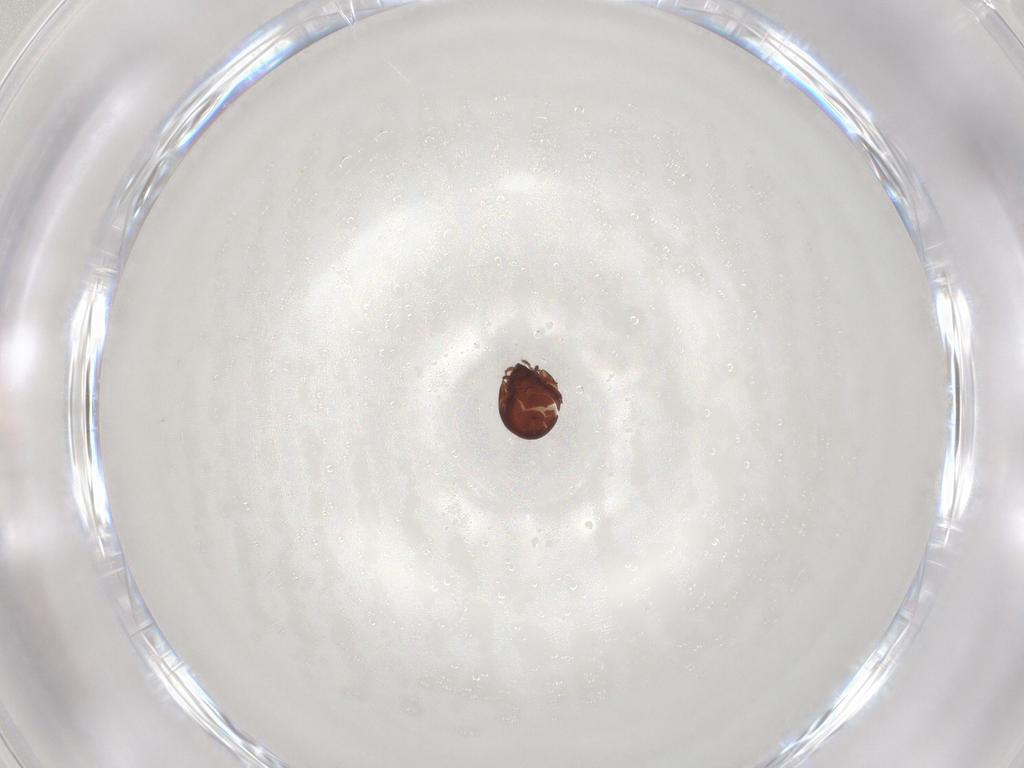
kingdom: Animalia
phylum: Arthropoda
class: Arachnida
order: Sarcoptiformes
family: Humerobatidae
